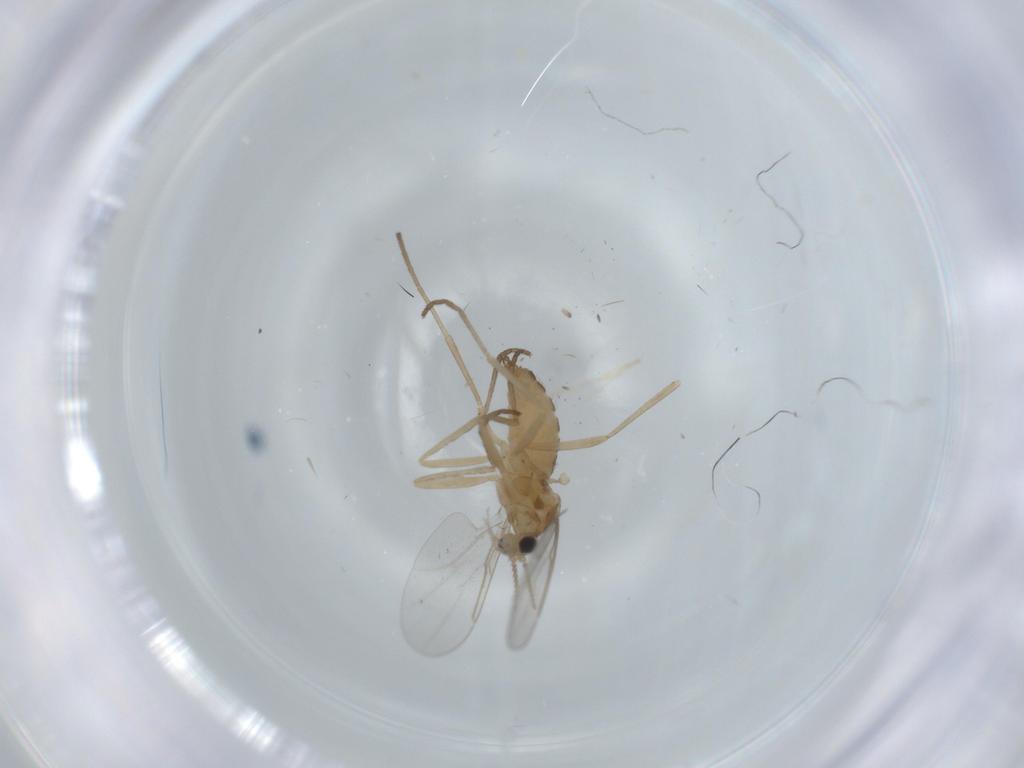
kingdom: Animalia
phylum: Arthropoda
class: Insecta
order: Diptera
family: Cecidomyiidae
